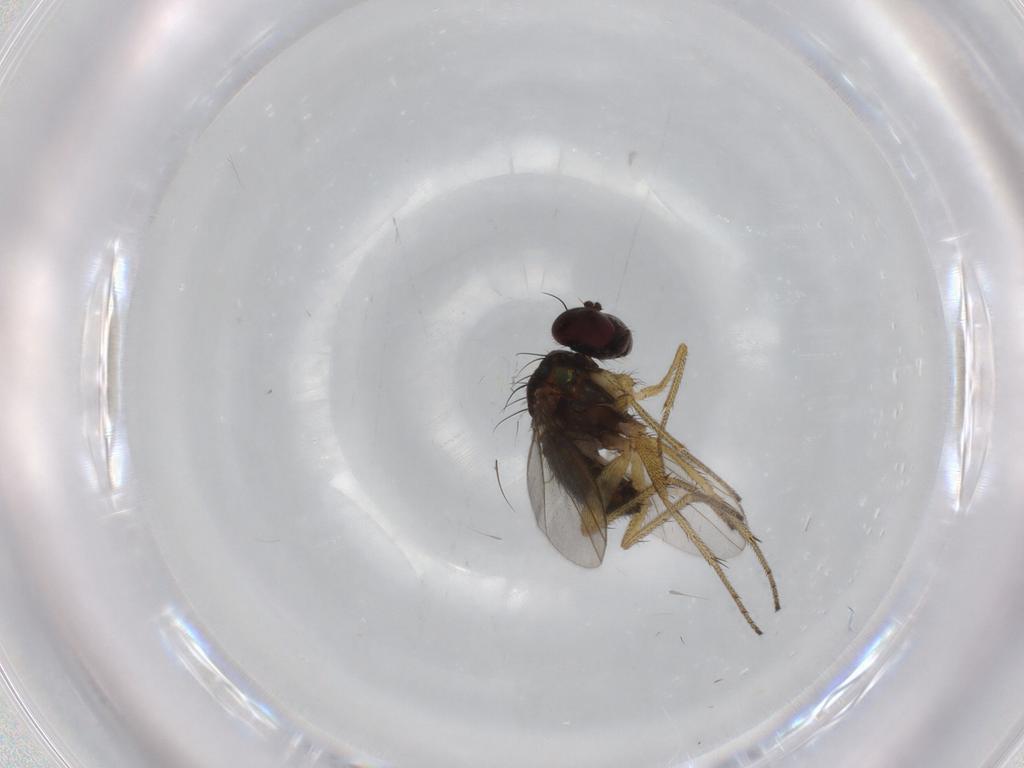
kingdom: Animalia
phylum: Arthropoda
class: Insecta
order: Diptera
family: Dolichopodidae
